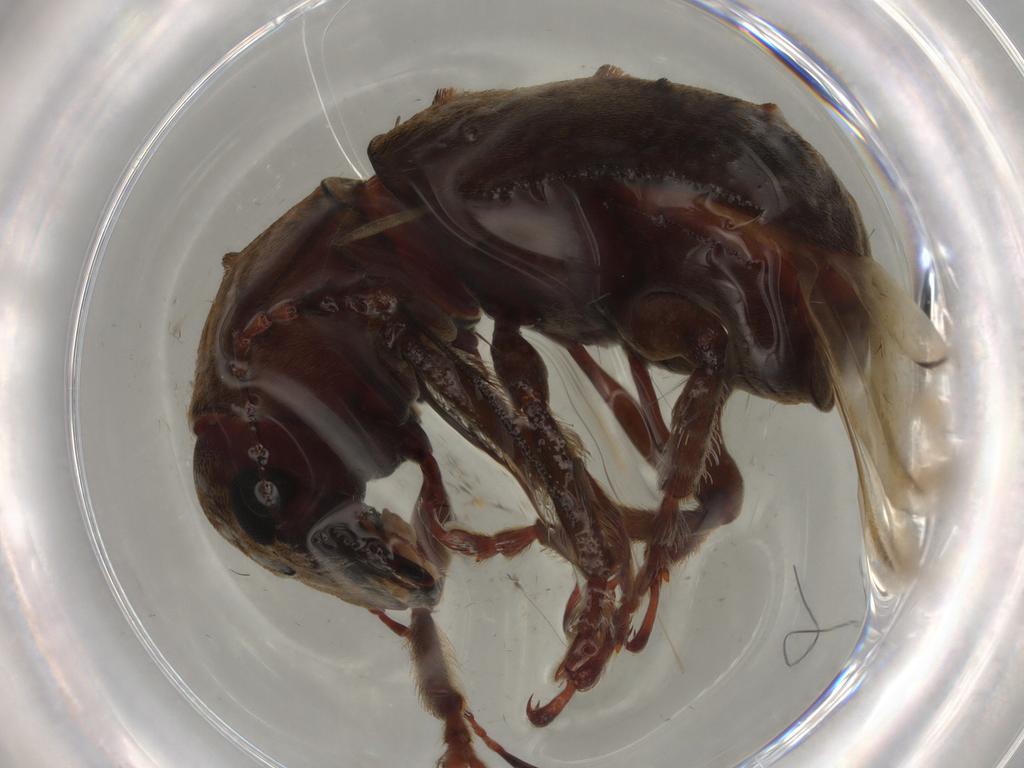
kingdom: Animalia
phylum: Arthropoda
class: Insecta
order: Coleoptera
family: Anthribidae
